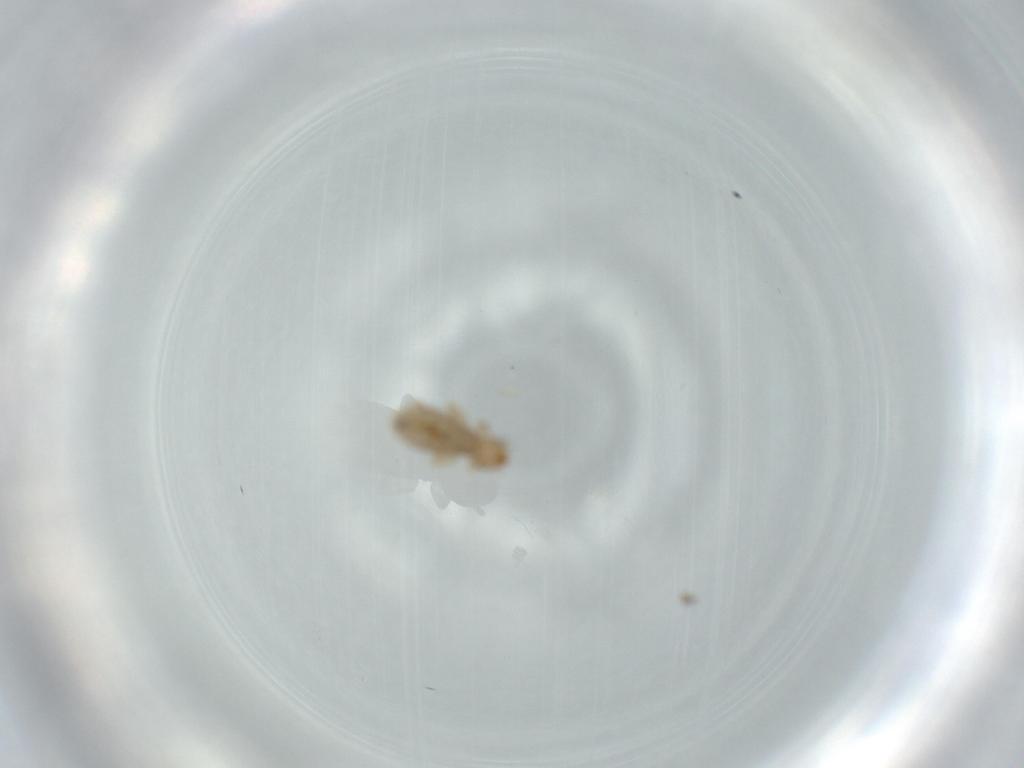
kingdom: Animalia
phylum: Arthropoda
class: Insecta
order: Psocodea
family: Liposcelididae
